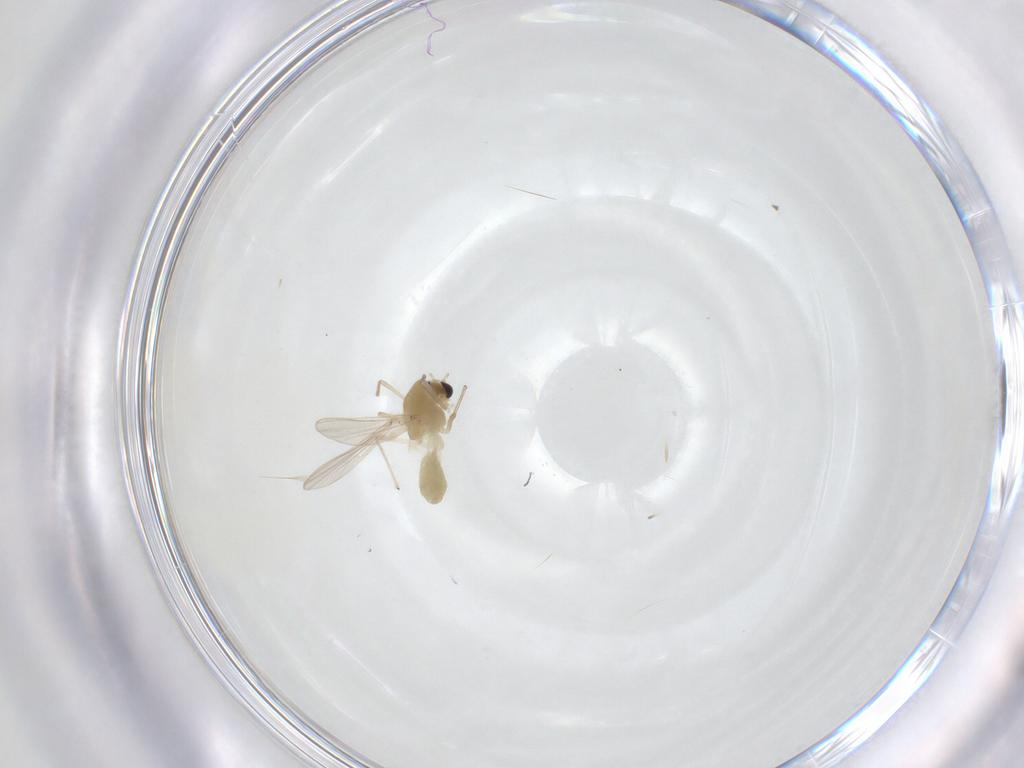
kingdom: Animalia
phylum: Arthropoda
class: Insecta
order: Diptera
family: Chironomidae
